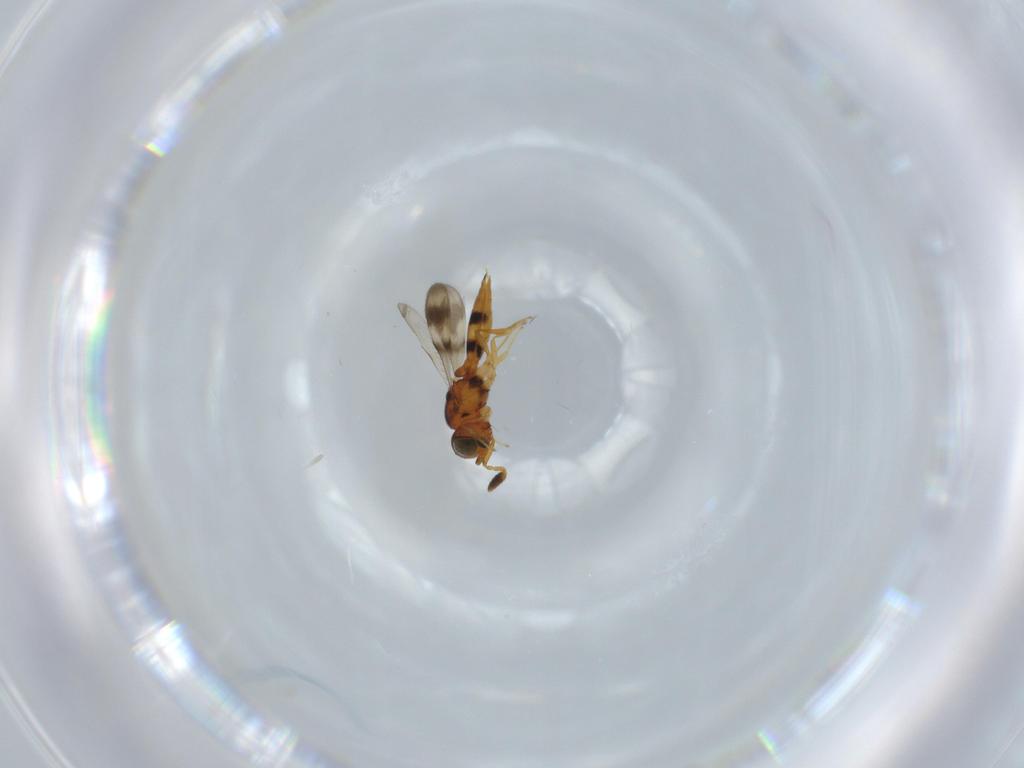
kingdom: Animalia
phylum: Arthropoda
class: Insecta
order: Hymenoptera
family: Scelionidae
